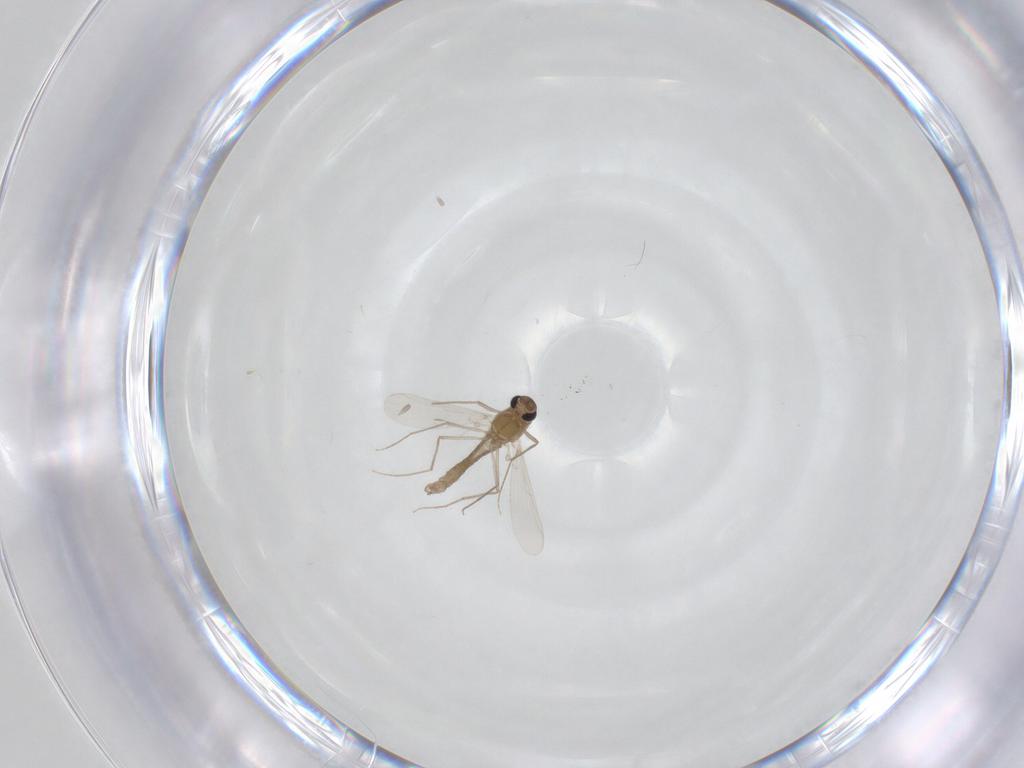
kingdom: Animalia
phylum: Arthropoda
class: Insecta
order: Diptera
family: Chironomidae
